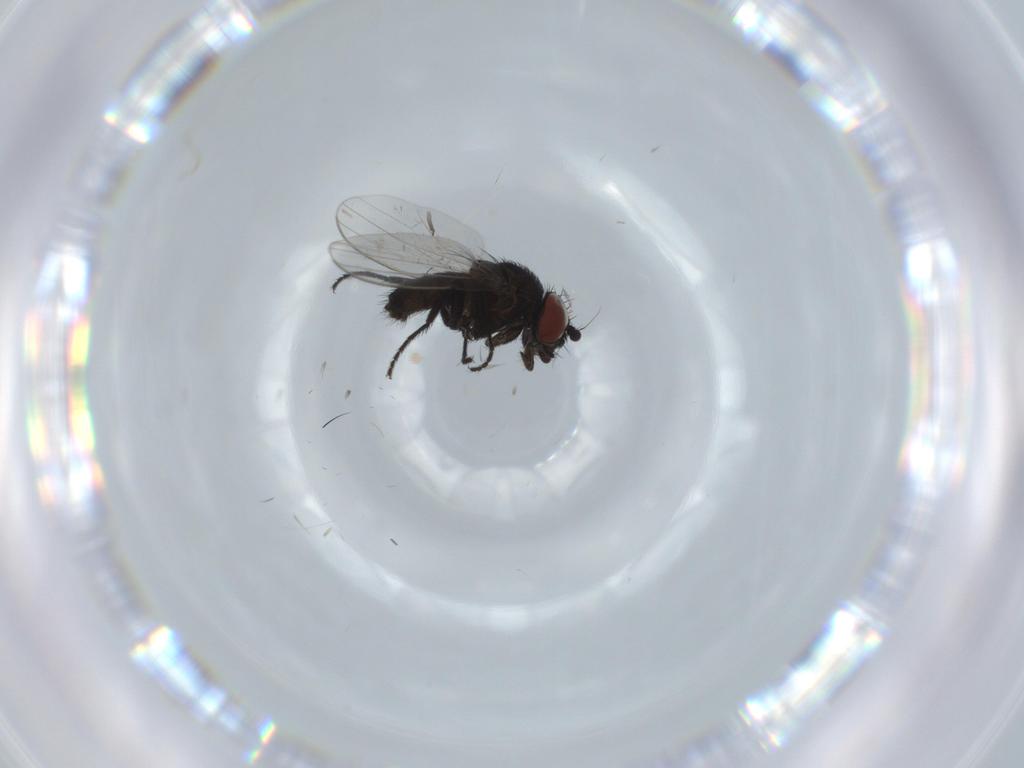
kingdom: Animalia
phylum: Arthropoda
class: Insecta
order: Diptera
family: Milichiidae
